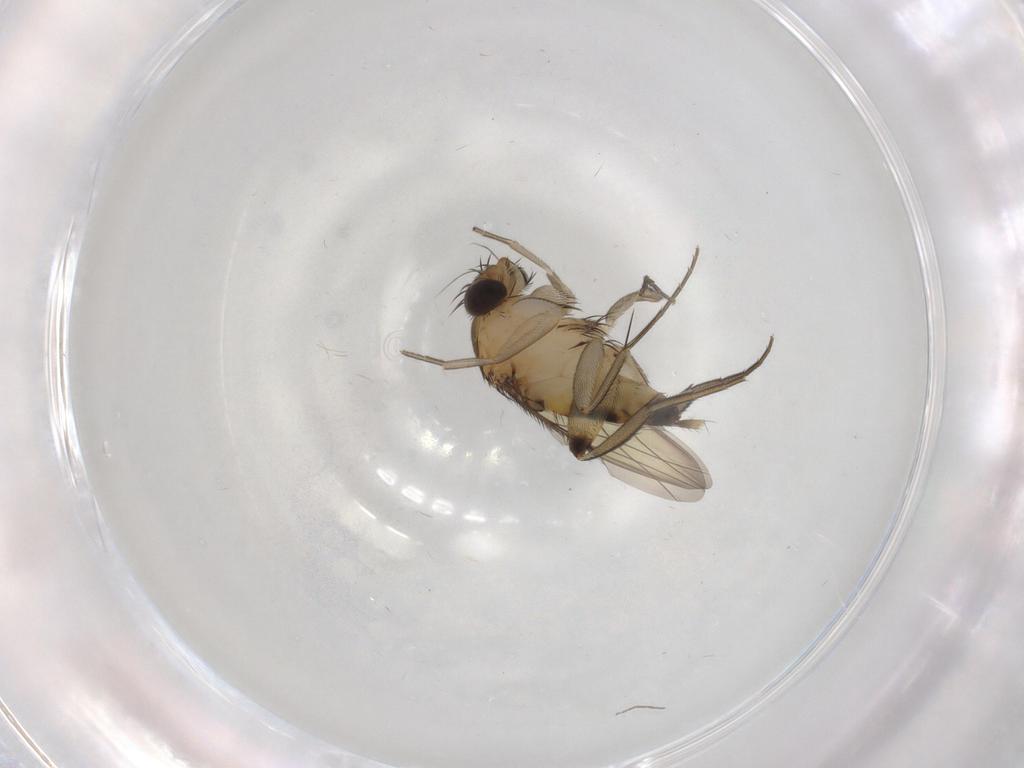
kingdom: Animalia
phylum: Arthropoda
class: Insecta
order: Diptera
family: Phoridae
